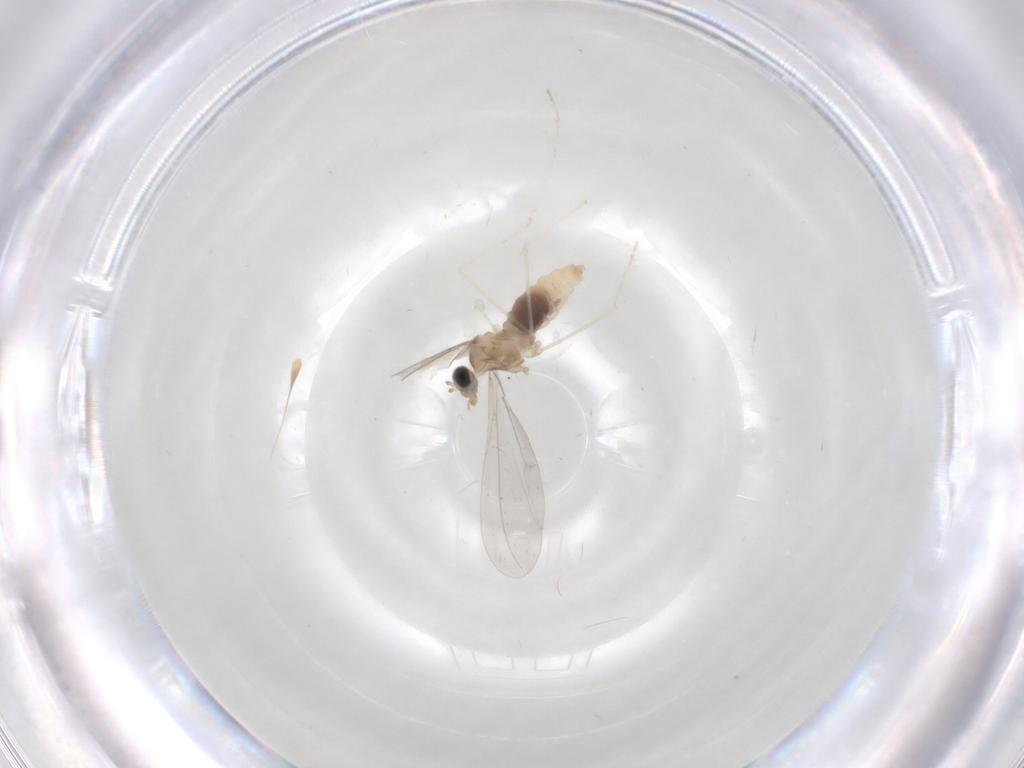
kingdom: Animalia
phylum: Arthropoda
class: Insecta
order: Diptera
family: Cecidomyiidae
